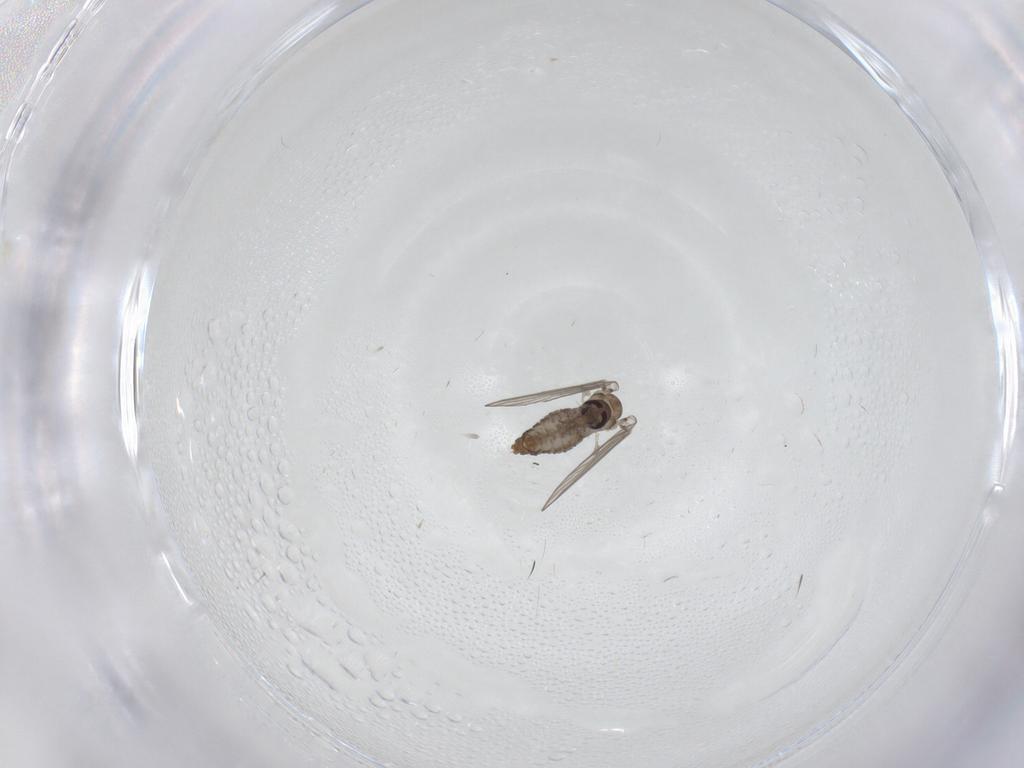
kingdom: Animalia
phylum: Arthropoda
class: Insecta
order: Diptera
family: Psychodidae
